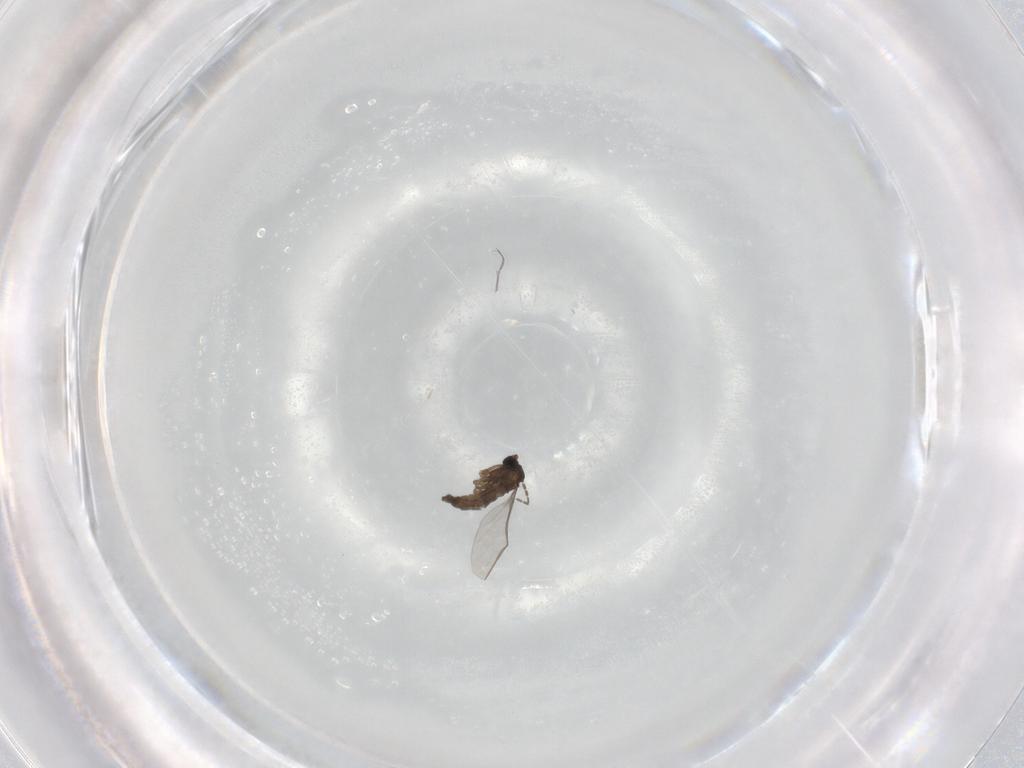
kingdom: Animalia
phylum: Arthropoda
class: Insecta
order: Diptera
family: Sciaridae
